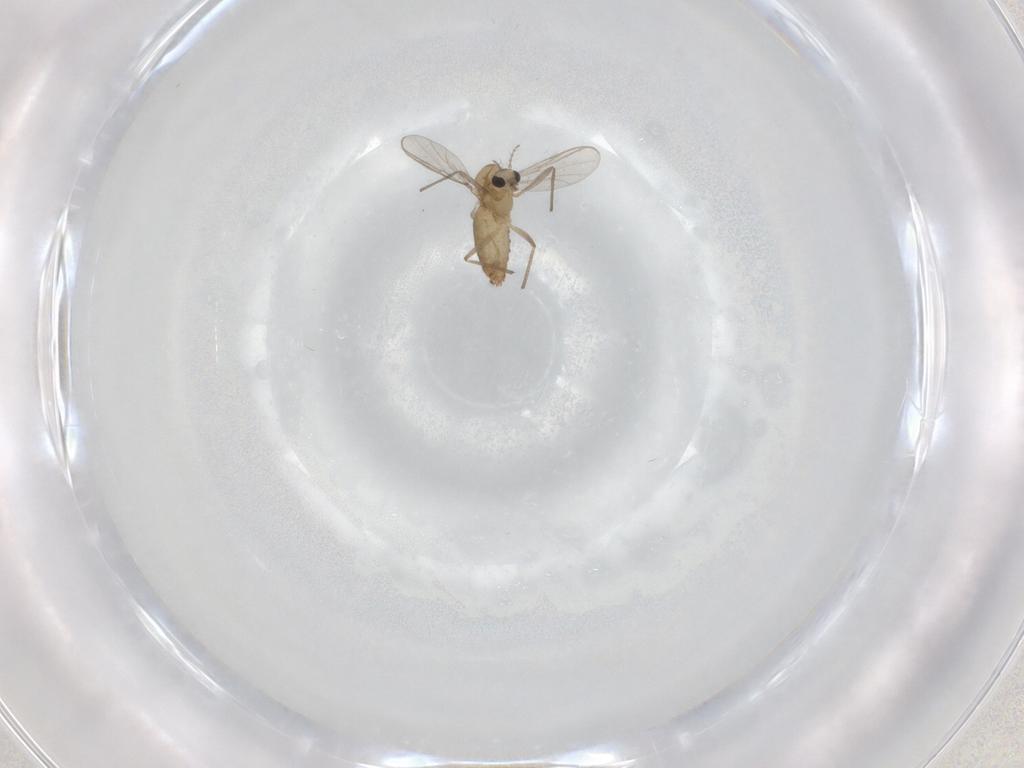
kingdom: Animalia
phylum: Arthropoda
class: Insecta
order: Diptera
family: Chironomidae
